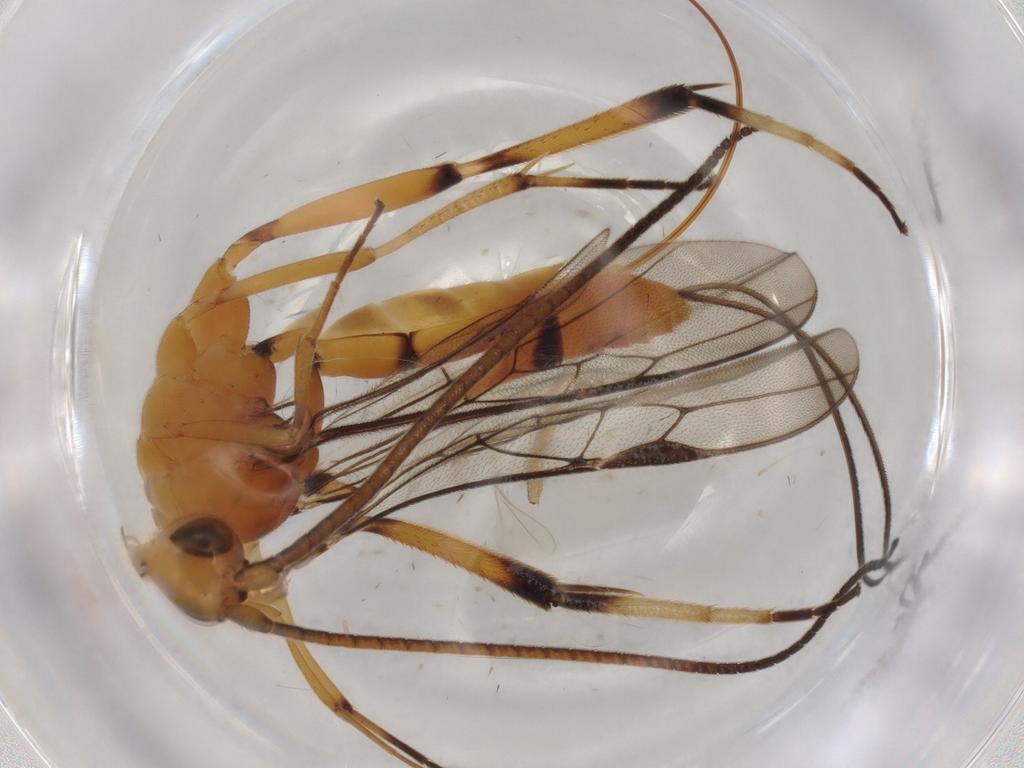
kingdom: Animalia
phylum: Arthropoda
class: Insecta
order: Hymenoptera
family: Braconidae
